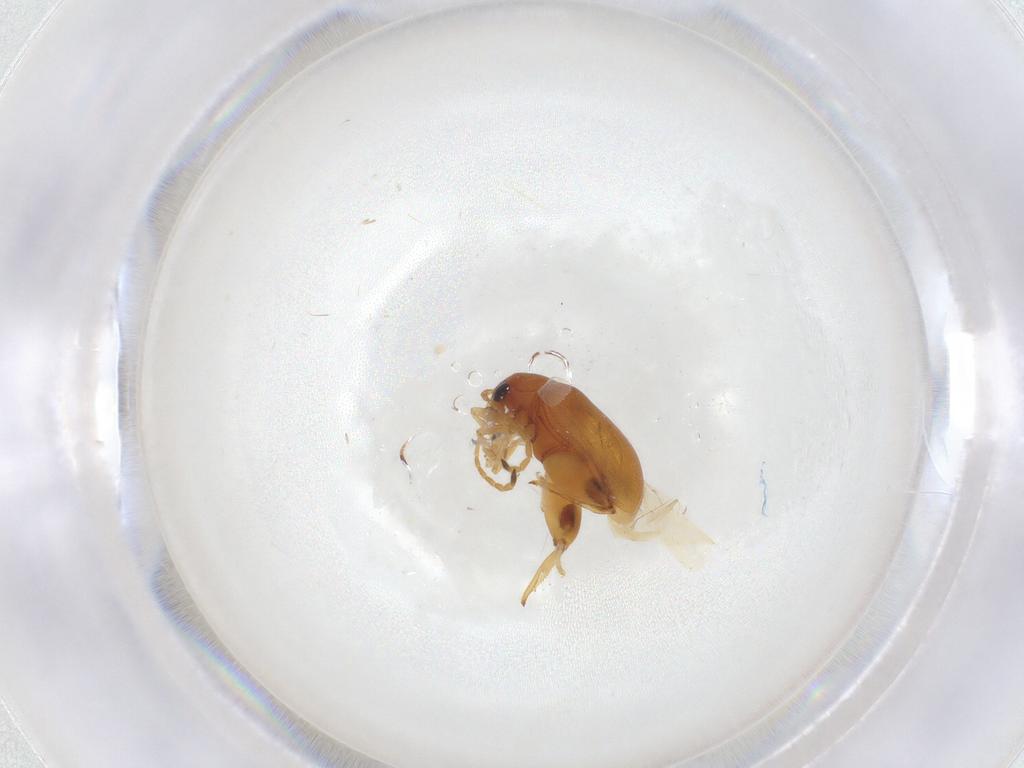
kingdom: Animalia
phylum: Arthropoda
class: Insecta
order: Coleoptera
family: Chrysomelidae
